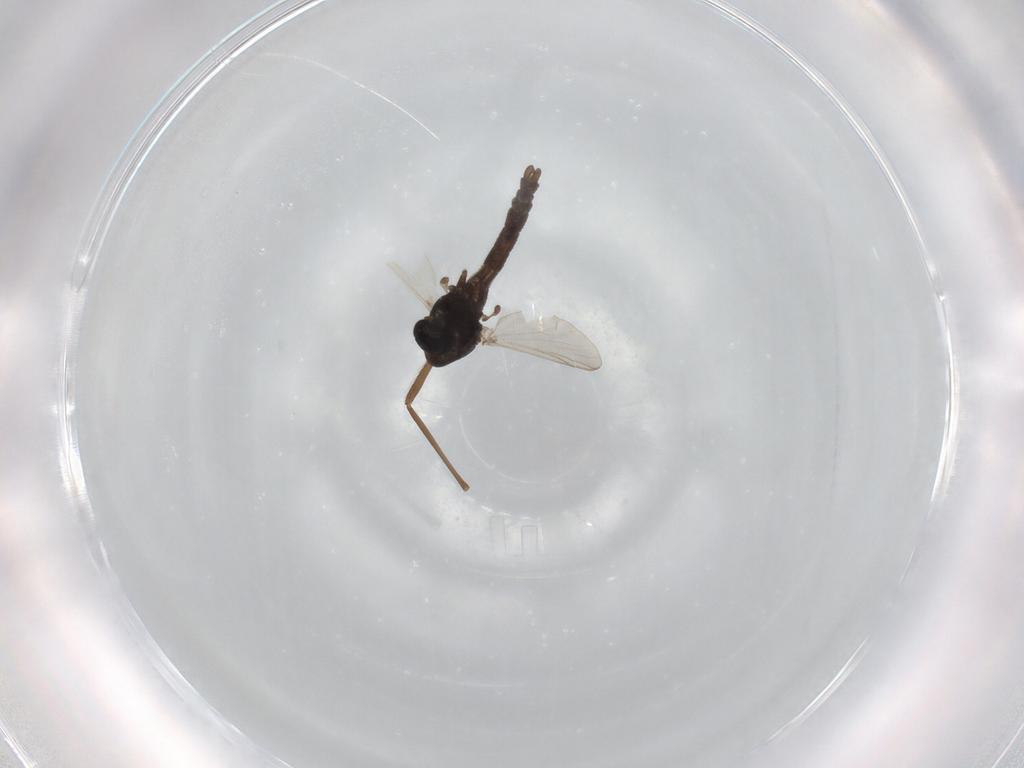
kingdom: Animalia
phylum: Arthropoda
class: Insecta
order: Diptera
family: Chironomidae
